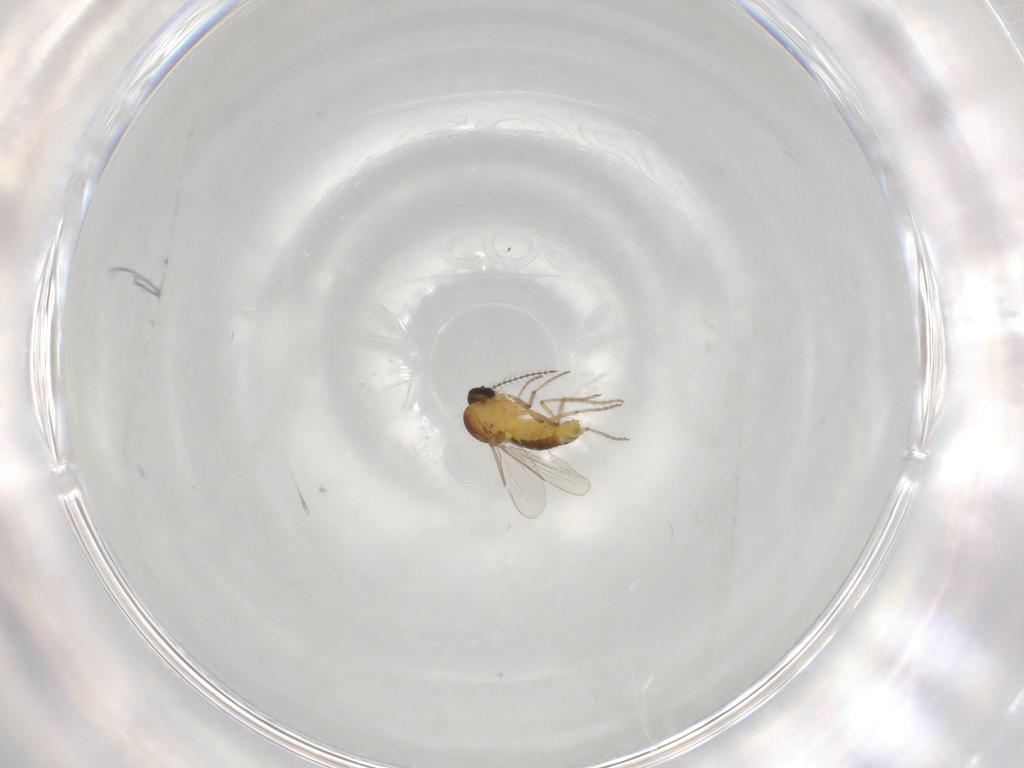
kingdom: Animalia
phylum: Arthropoda
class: Insecta
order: Diptera
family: Ceratopogonidae
